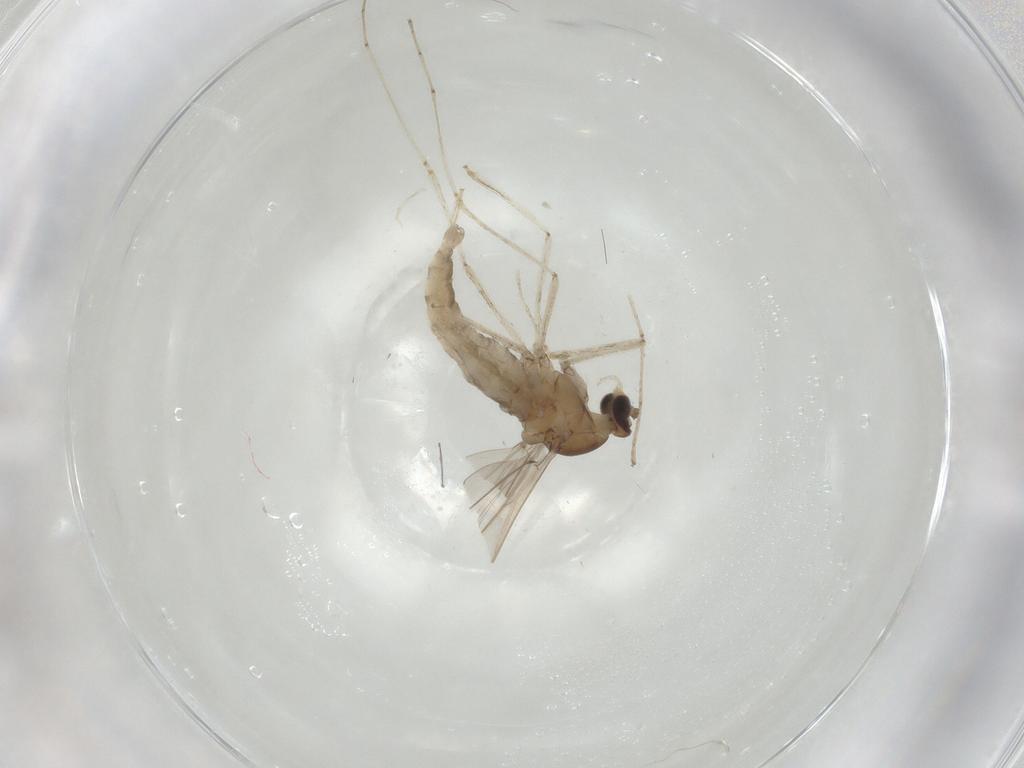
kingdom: Animalia
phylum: Arthropoda
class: Insecta
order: Diptera
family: Cecidomyiidae
